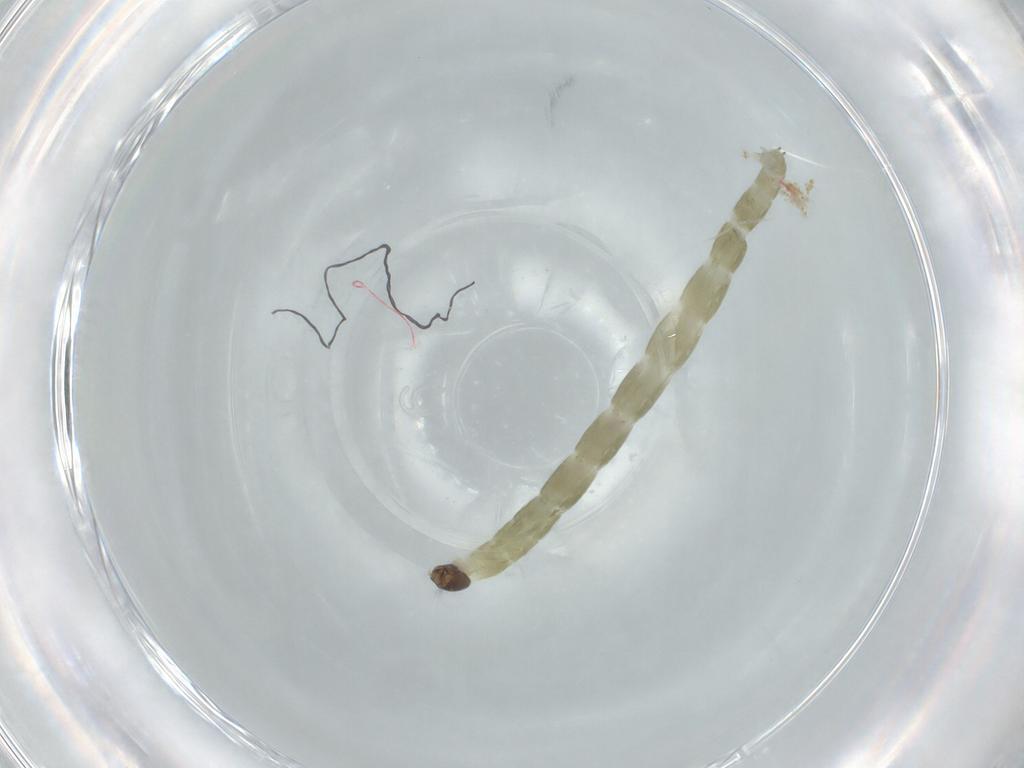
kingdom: Animalia
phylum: Arthropoda
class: Insecta
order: Diptera
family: Chironomidae
